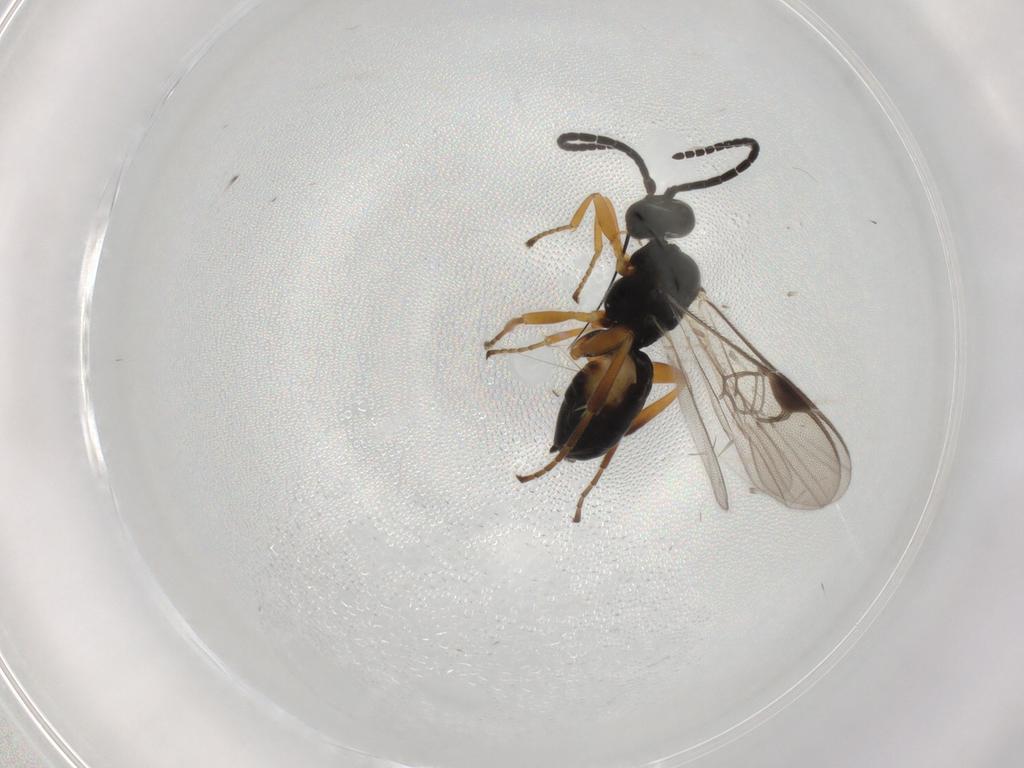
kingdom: Animalia
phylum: Arthropoda
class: Insecta
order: Hymenoptera
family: Braconidae
